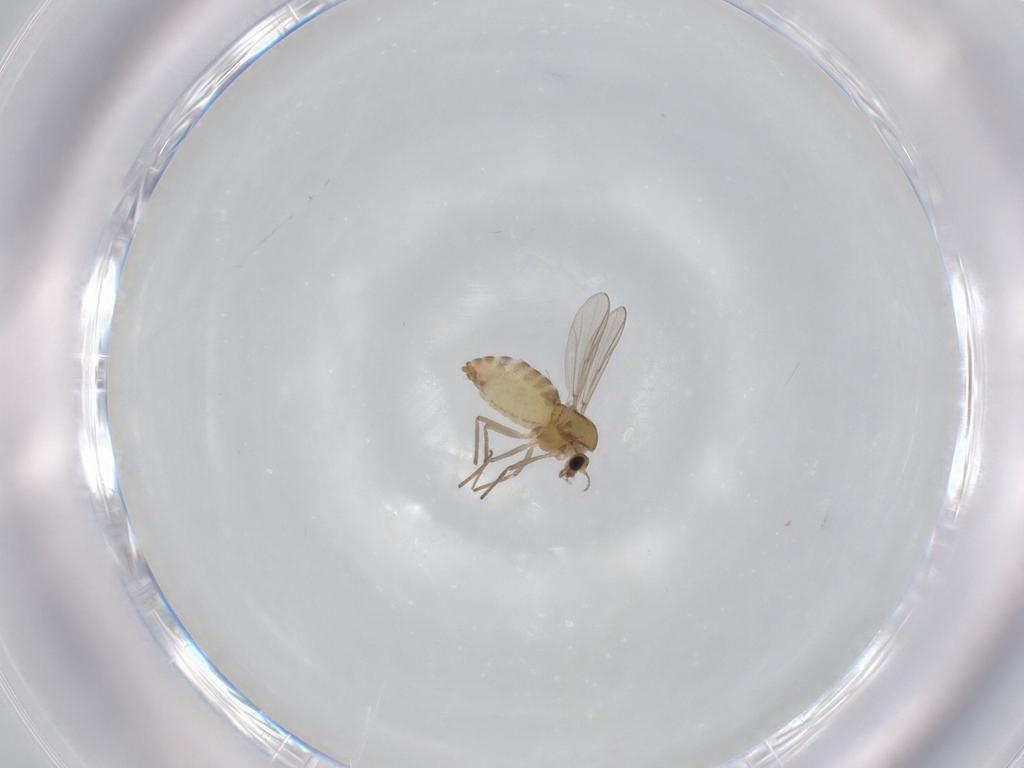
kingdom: Animalia
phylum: Arthropoda
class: Insecta
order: Diptera
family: Chironomidae
